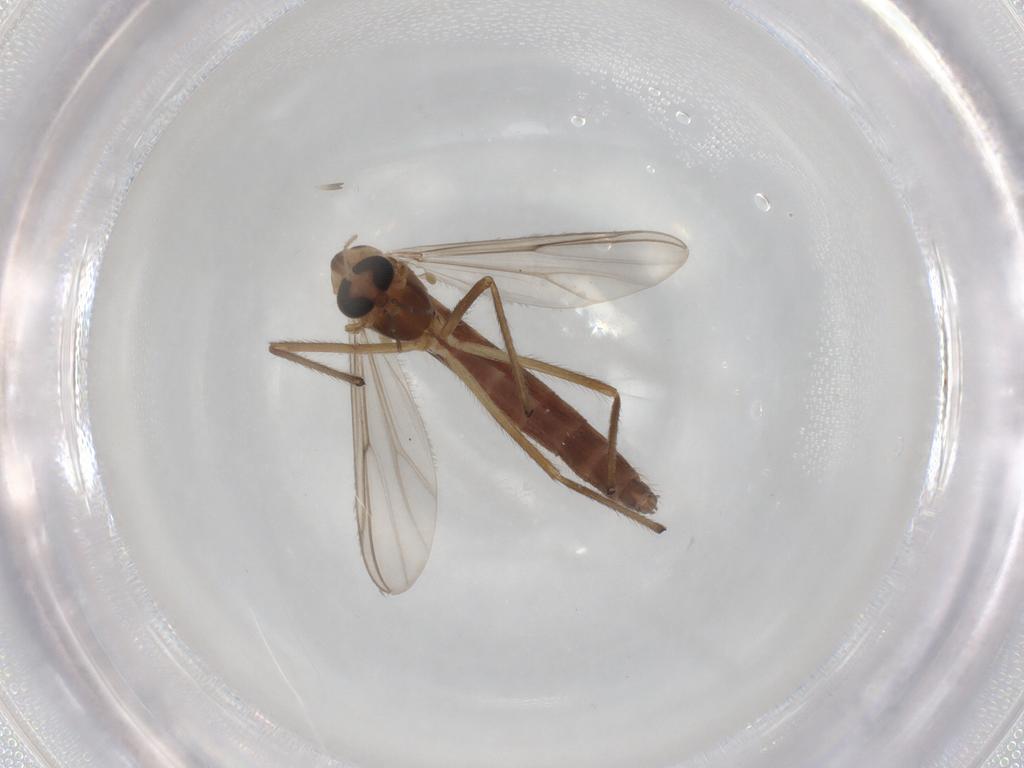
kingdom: Animalia
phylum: Arthropoda
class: Insecta
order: Diptera
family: Chironomidae
